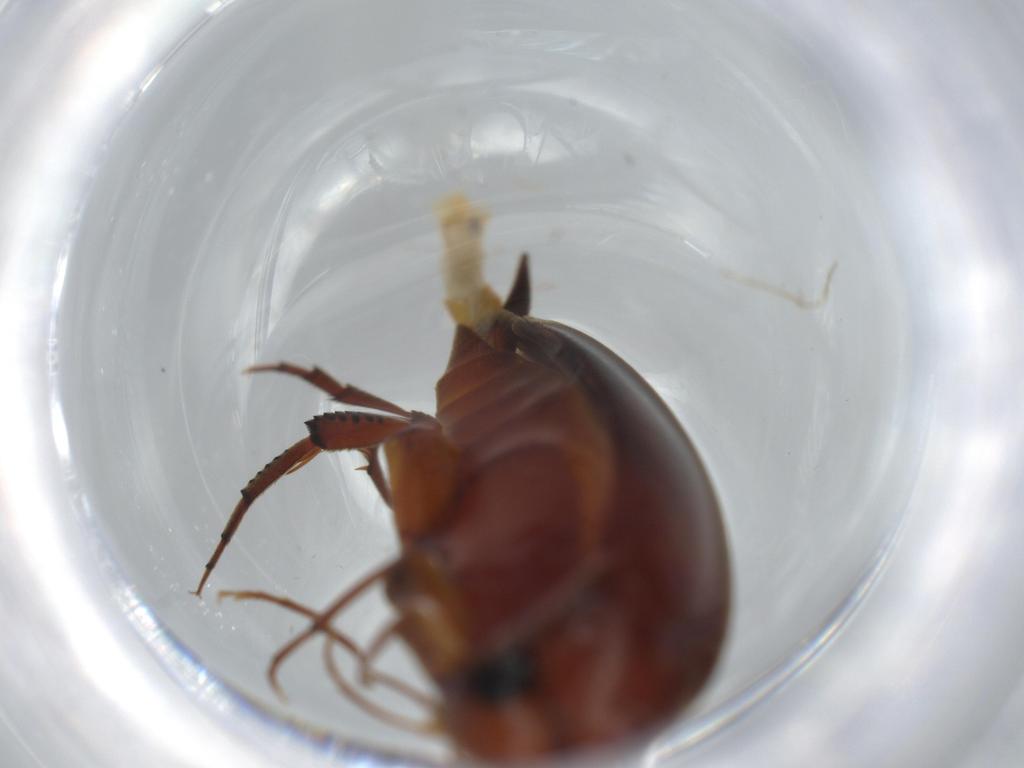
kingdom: Animalia
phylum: Arthropoda
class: Insecta
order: Coleoptera
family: Mordellidae
